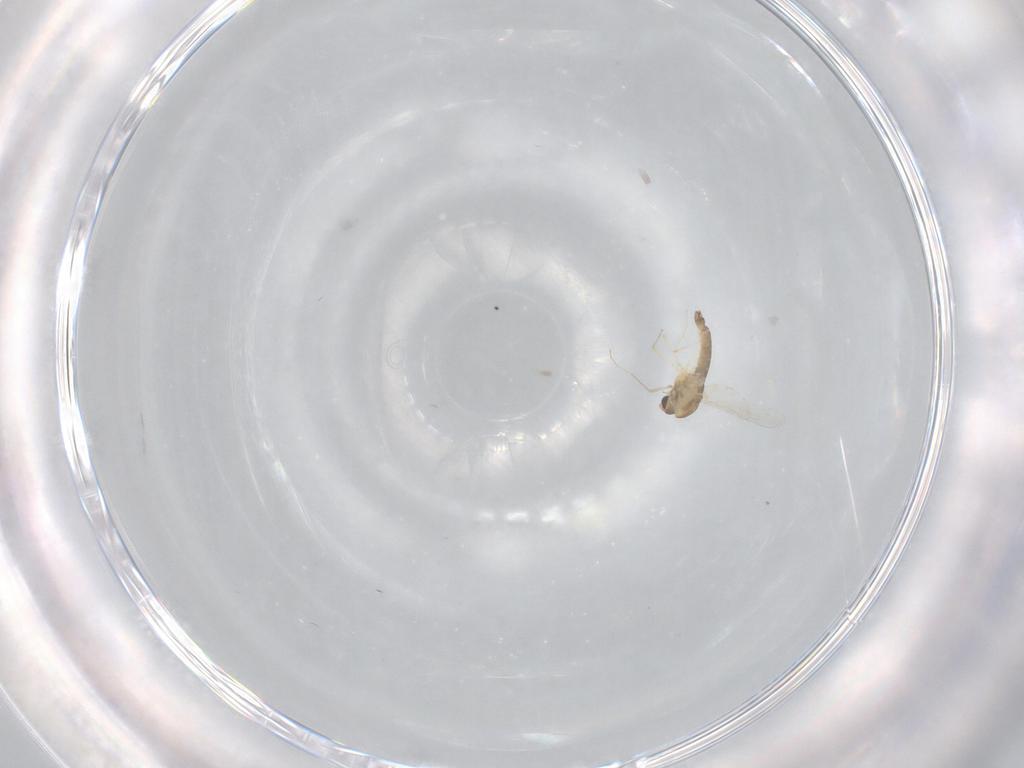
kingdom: Animalia
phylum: Arthropoda
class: Insecta
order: Diptera
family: Chironomidae
